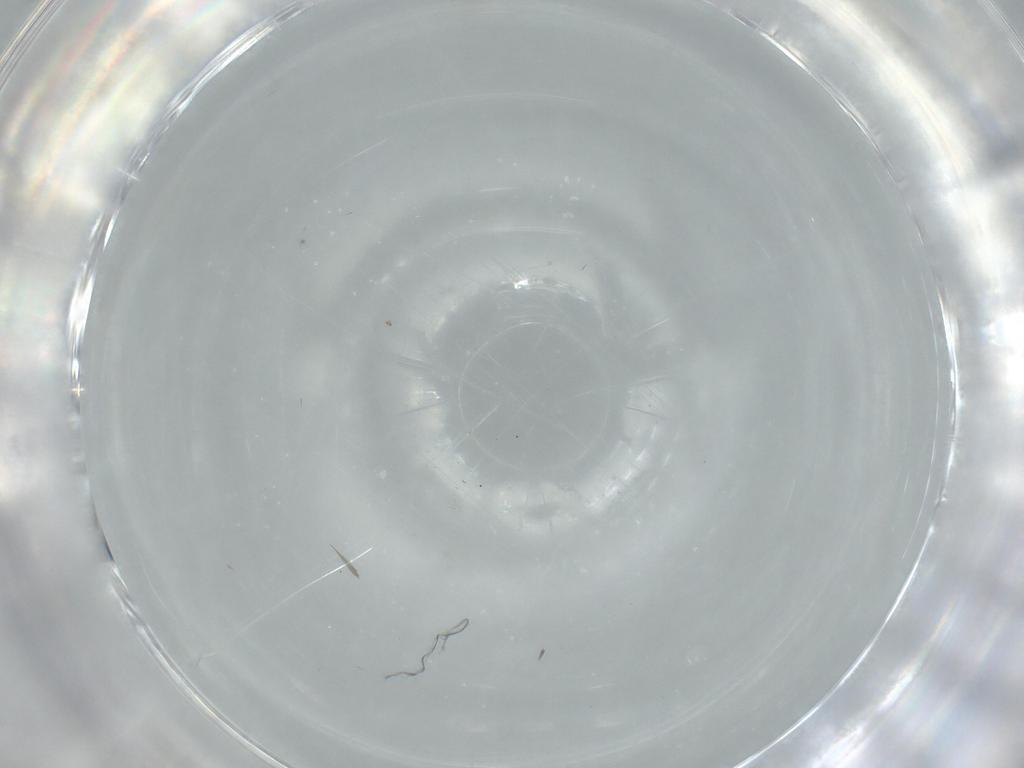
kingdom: Animalia
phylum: Arthropoda
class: Insecta
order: Diptera
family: Cecidomyiidae
